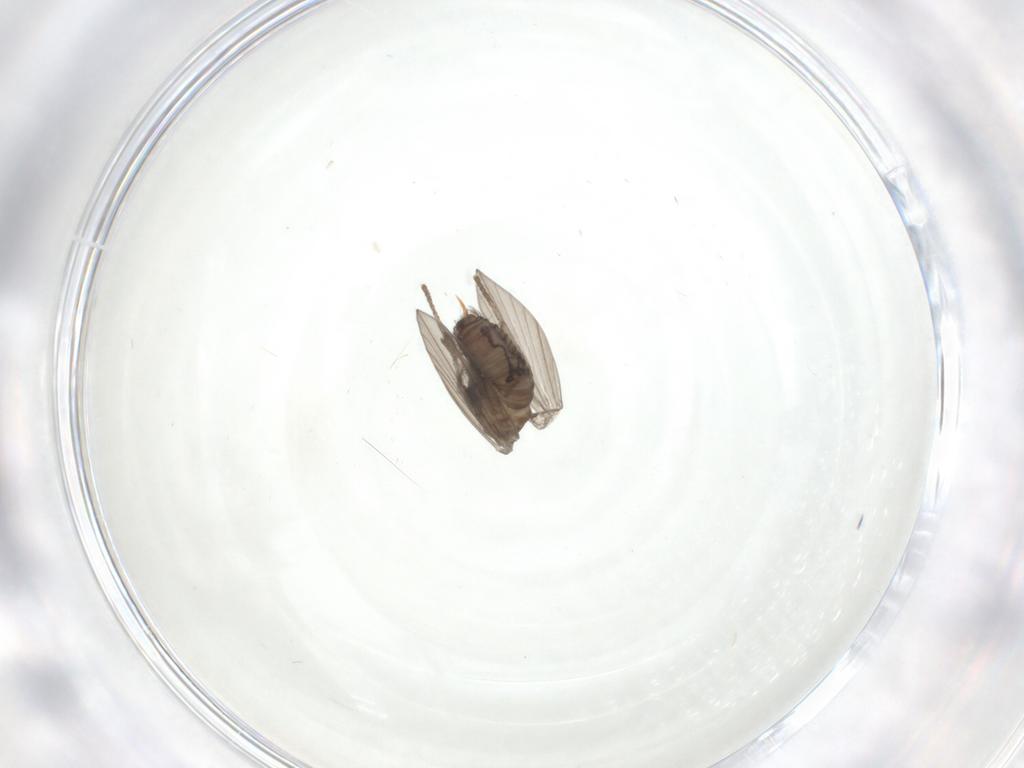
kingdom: Animalia
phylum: Arthropoda
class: Insecta
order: Diptera
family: Psychodidae
